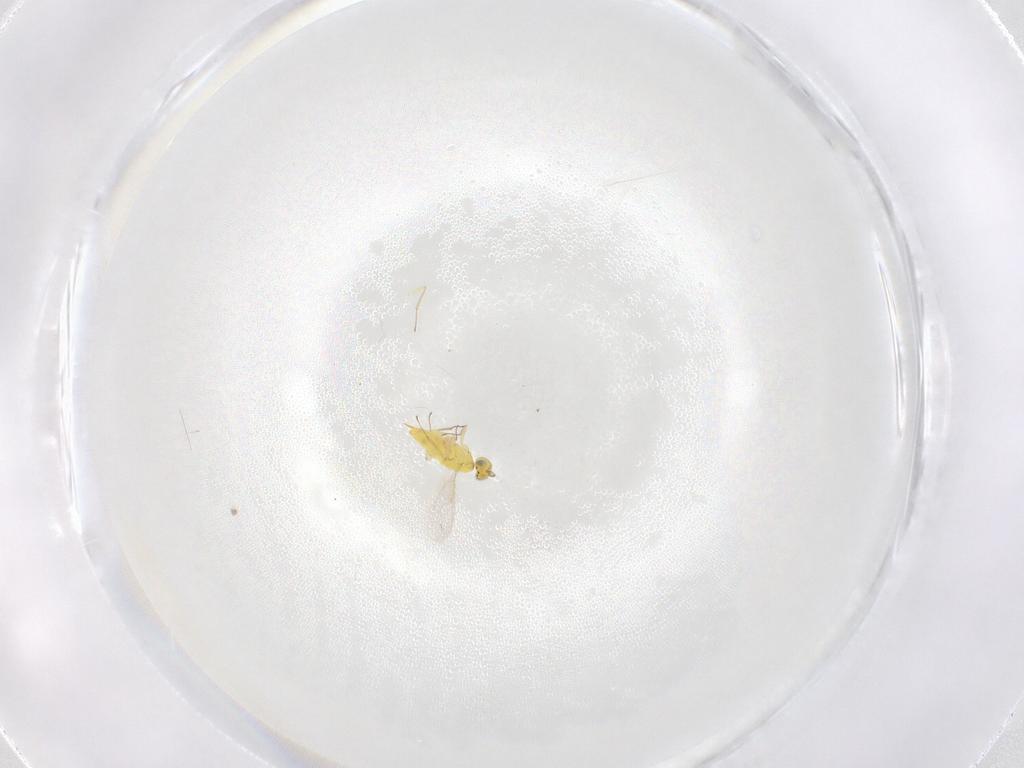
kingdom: Animalia
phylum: Arthropoda
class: Insecta
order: Hymenoptera
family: Aphelinidae
